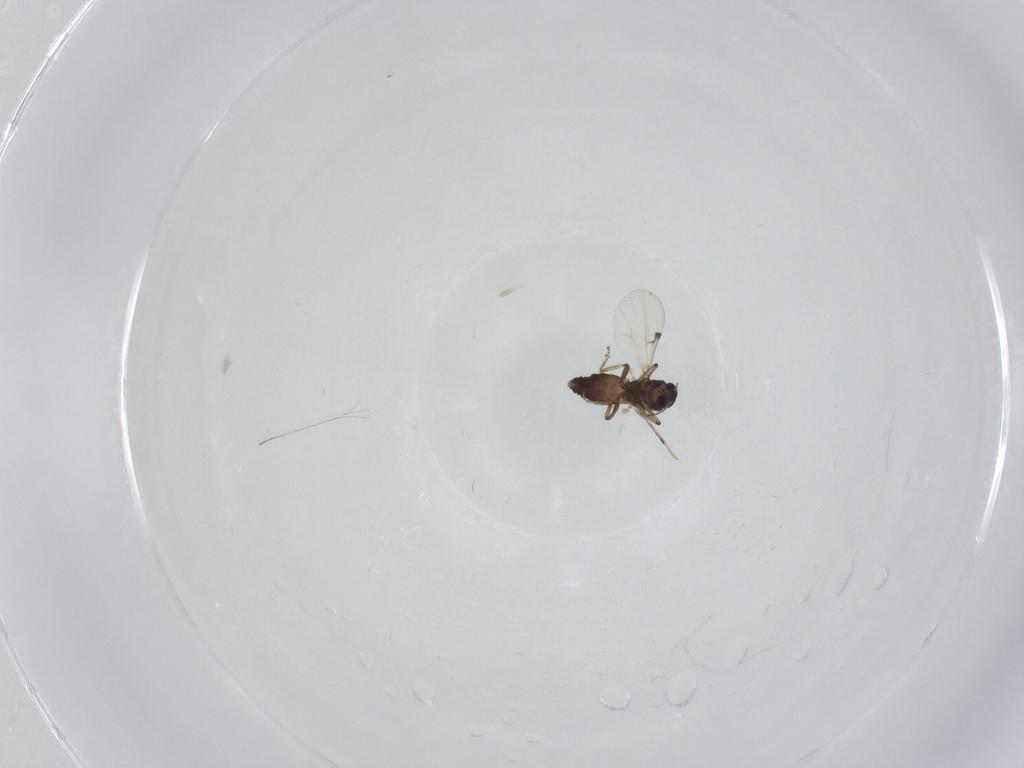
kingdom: Animalia
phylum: Arthropoda
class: Insecta
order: Diptera
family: Ceratopogonidae
